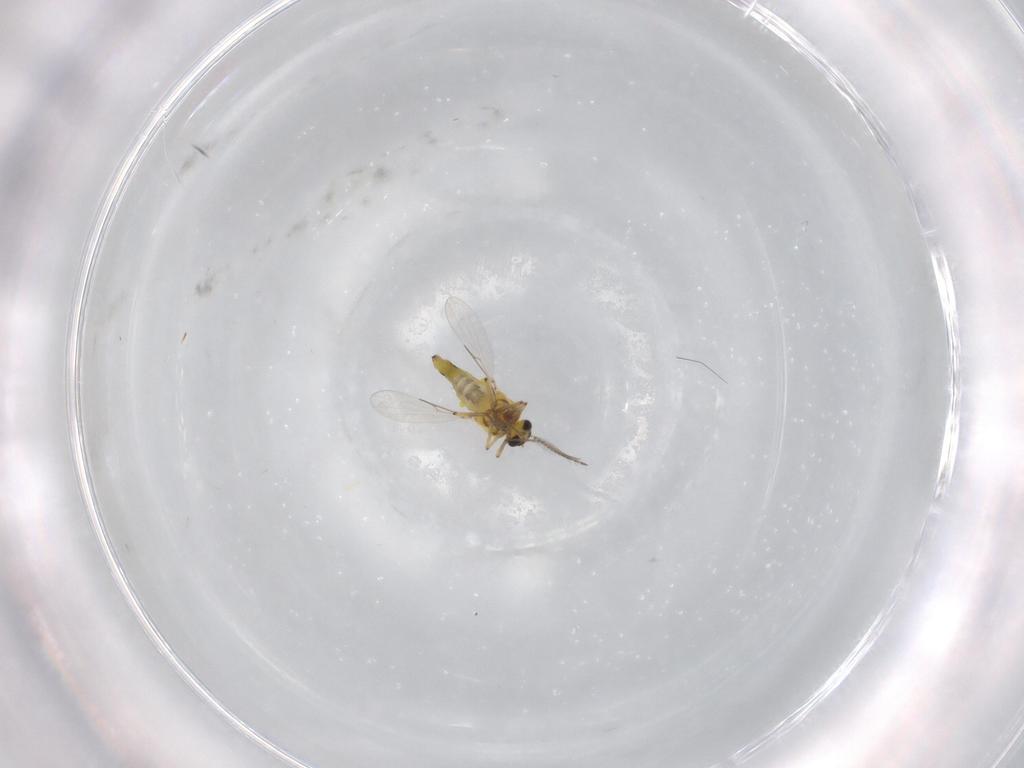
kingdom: Animalia
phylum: Arthropoda
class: Insecta
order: Diptera
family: Ceratopogonidae
